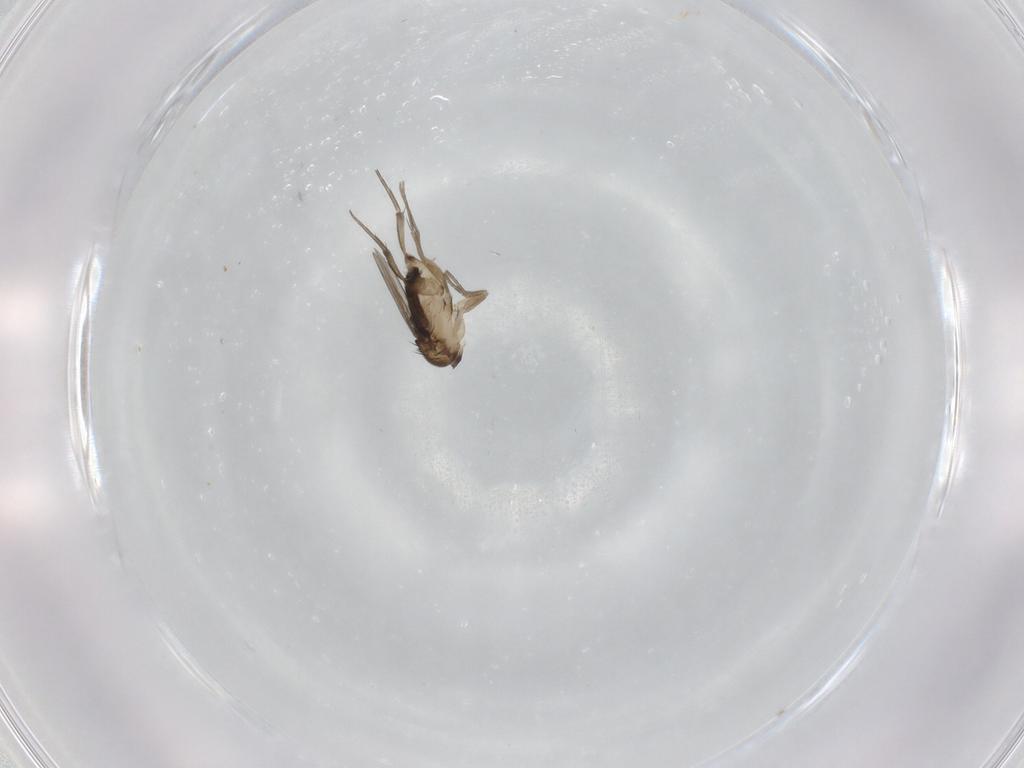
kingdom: Animalia
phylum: Arthropoda
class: Insecta
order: Diptera
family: Phoridae
